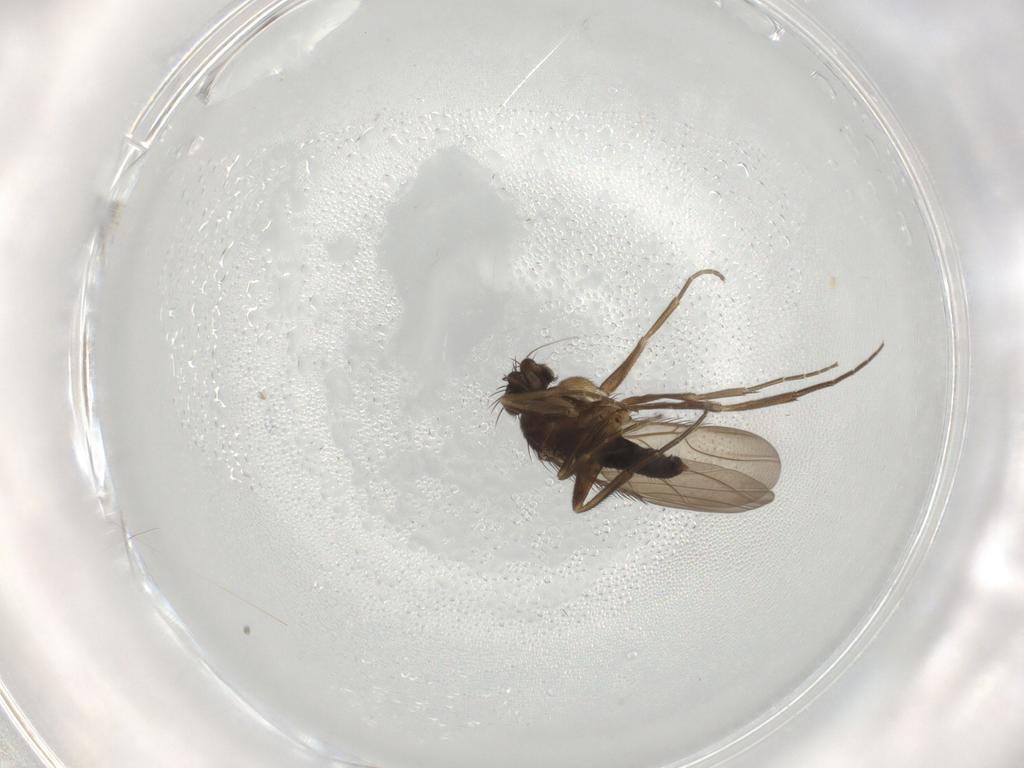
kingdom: Animalia
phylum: Arthropoda
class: Insecta
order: Diptera
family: Phoridae
